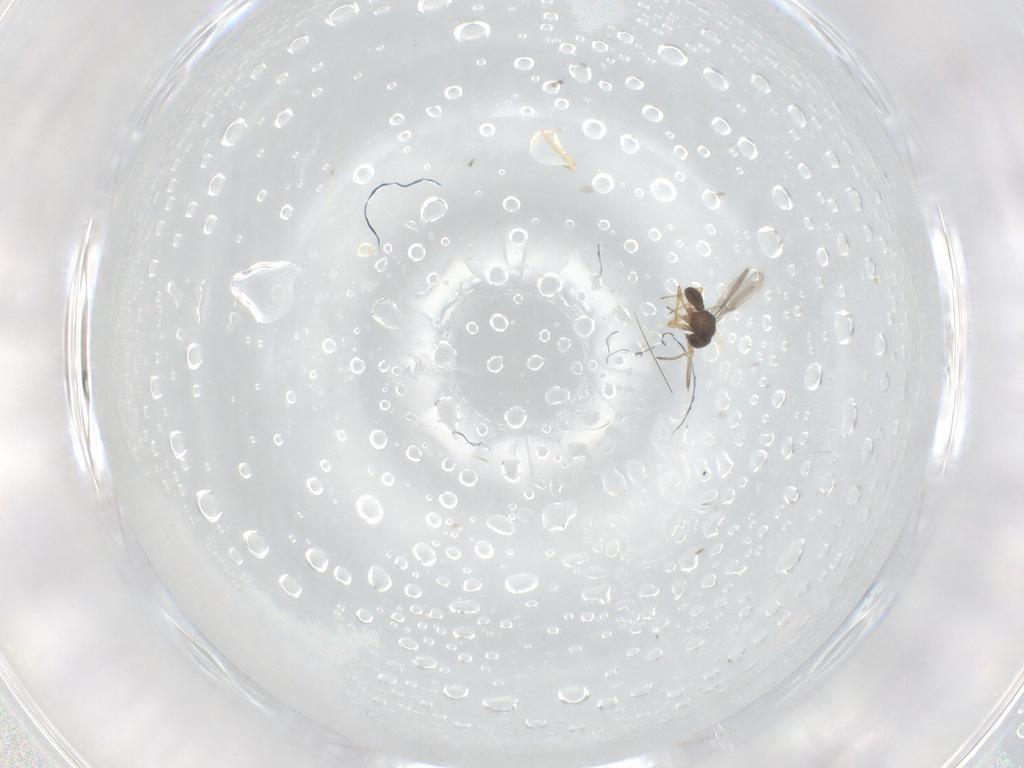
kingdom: Animalia
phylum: Arthropoda
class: Insecta
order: Hymenoptera
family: Scelionidae
